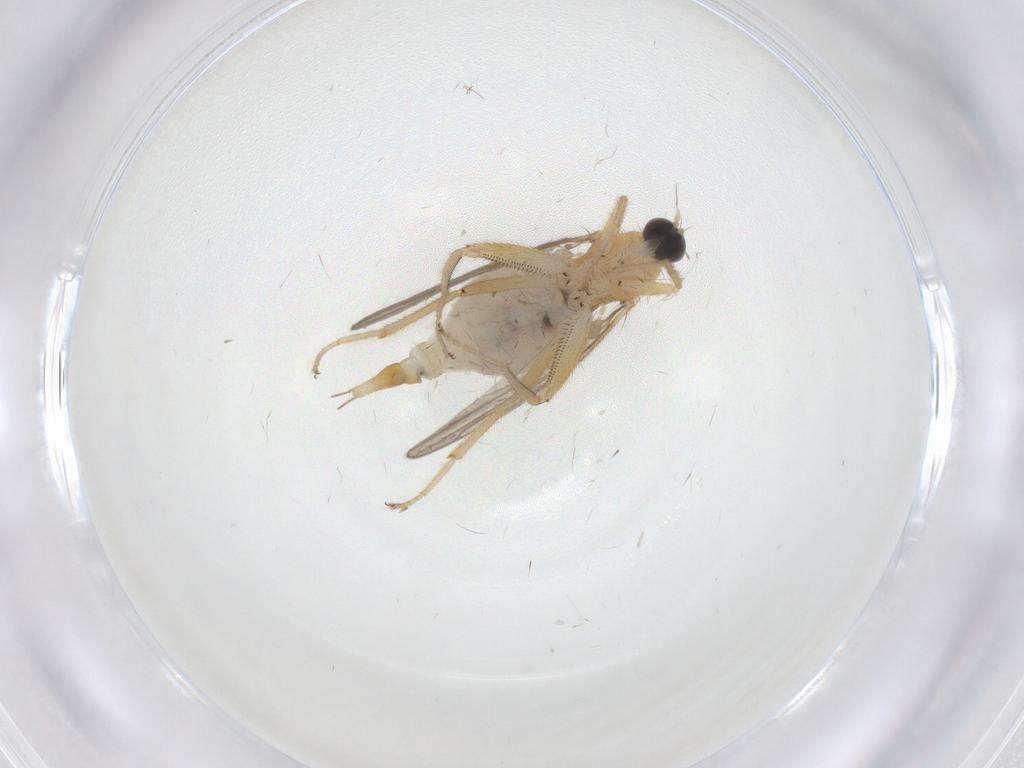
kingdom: Animalia
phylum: Arthropoda
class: Insecta
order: Diptera
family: Hybotidae
